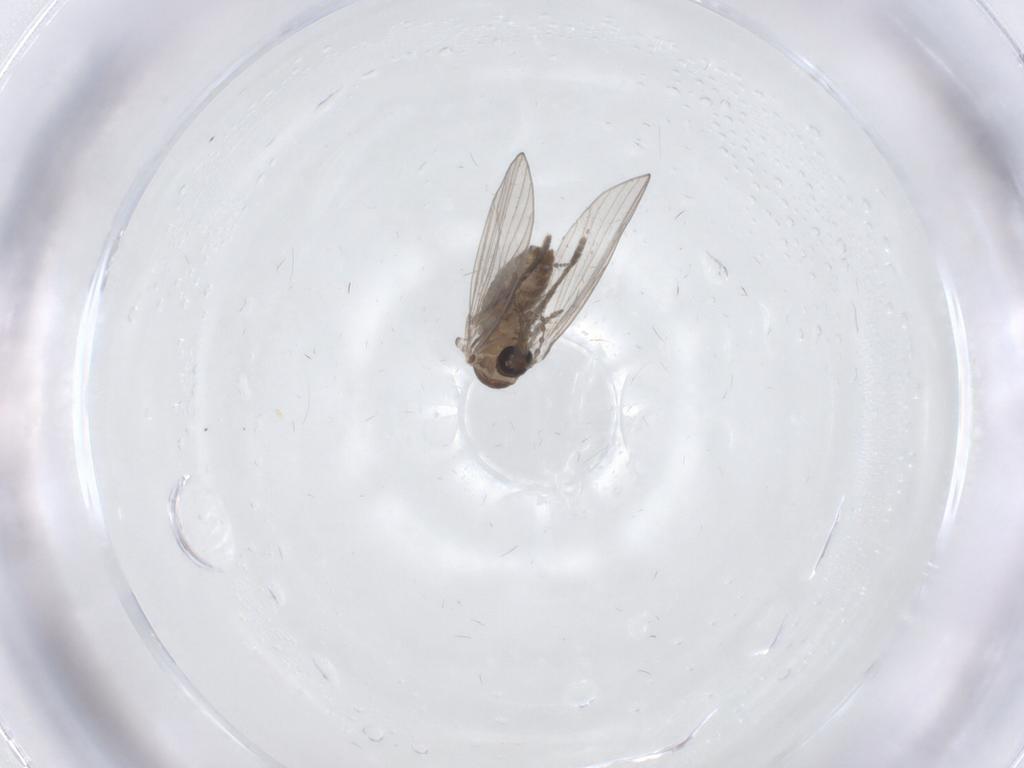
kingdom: Animalia
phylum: Arthropoda
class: Insecta
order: Diptera
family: Psychodidae
